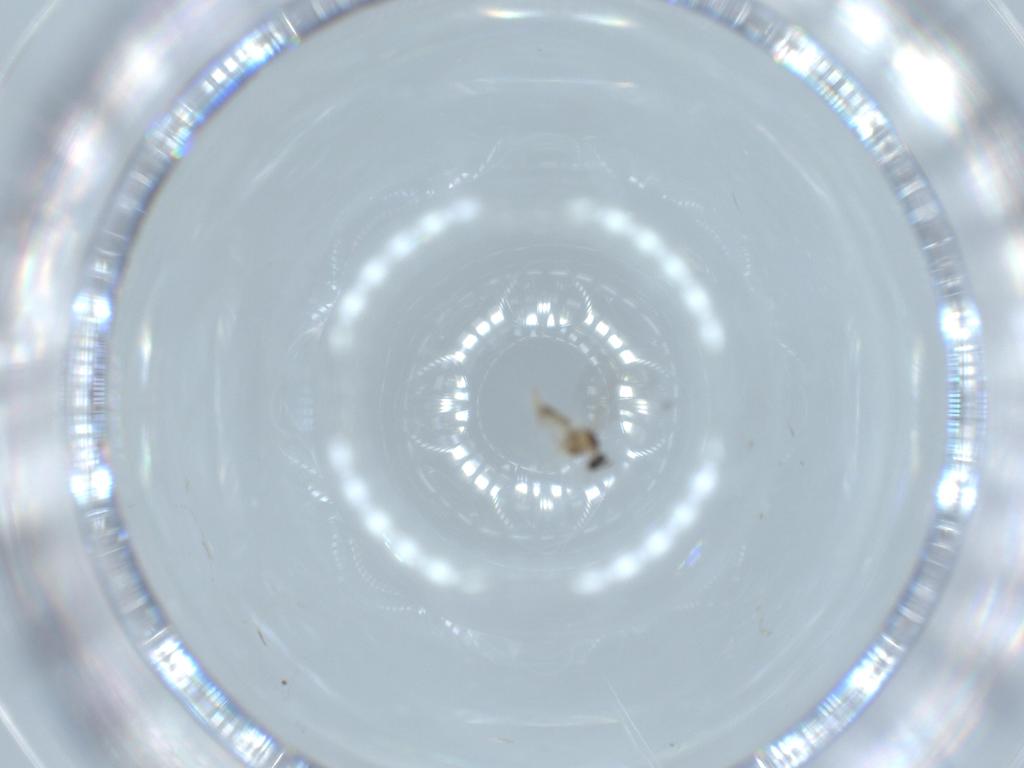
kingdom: Animalia
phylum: Arthropoda
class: Insecta
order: Diptera
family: Cecidomyiidae
